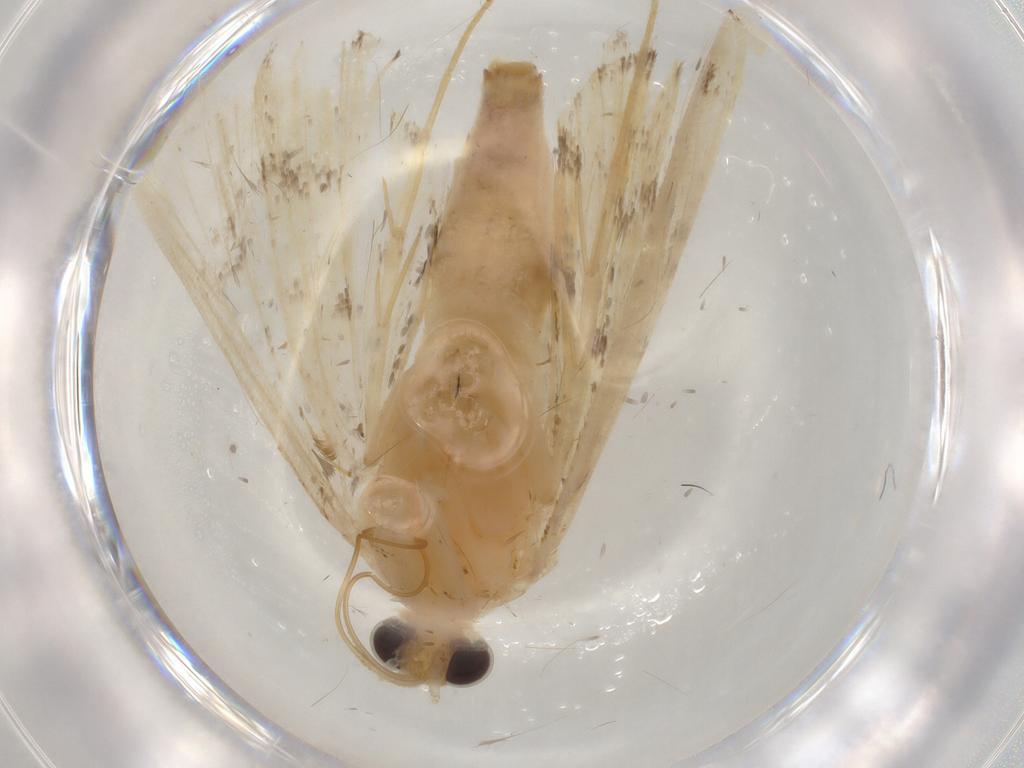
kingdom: Animalia
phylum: Arthropoda
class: Insecta
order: Lepidoptera
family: Crambidae
